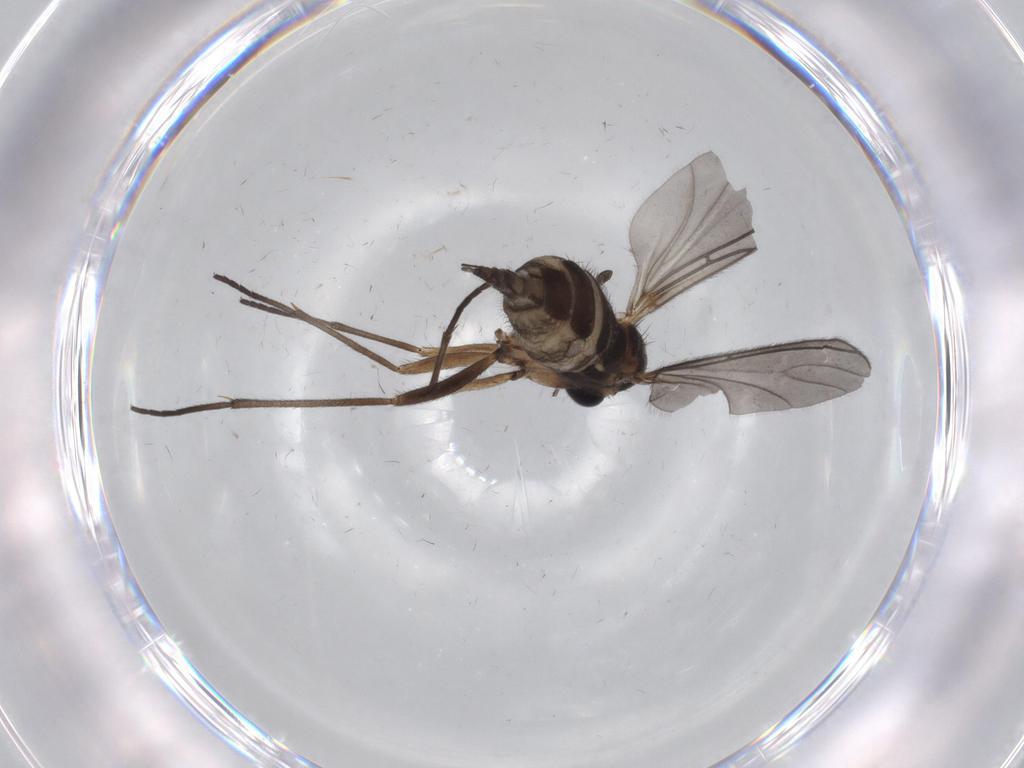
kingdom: Animalia
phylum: Arthropoda
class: Insecta
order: Diptera
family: Sciaridae
